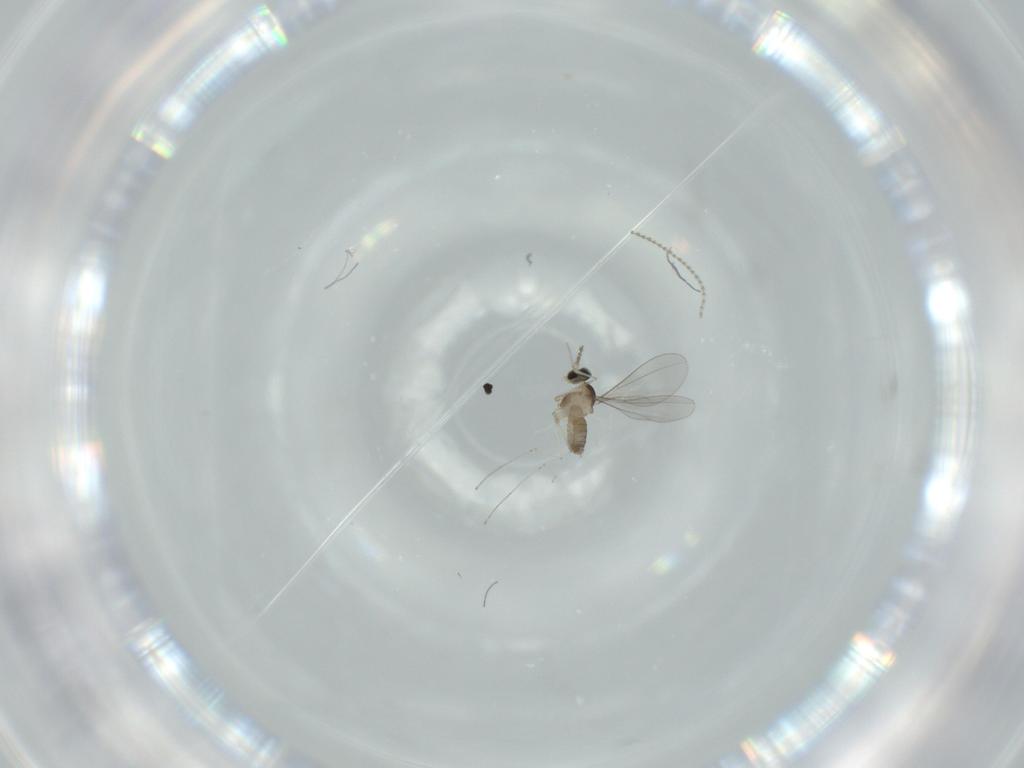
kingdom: Animalia
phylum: Arthropoda
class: Insecta
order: Diptera
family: Cecidomyiidae
